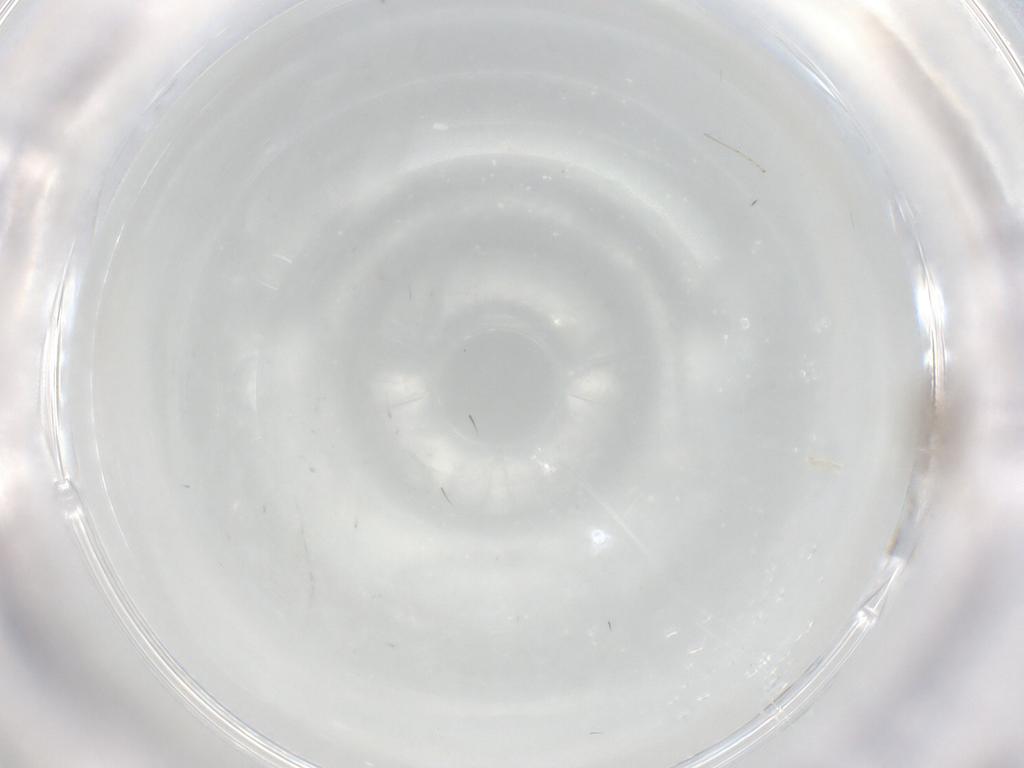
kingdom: Animalia
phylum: Arthropoda
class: Insecta
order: Diptera
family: Cecidomyiidae
